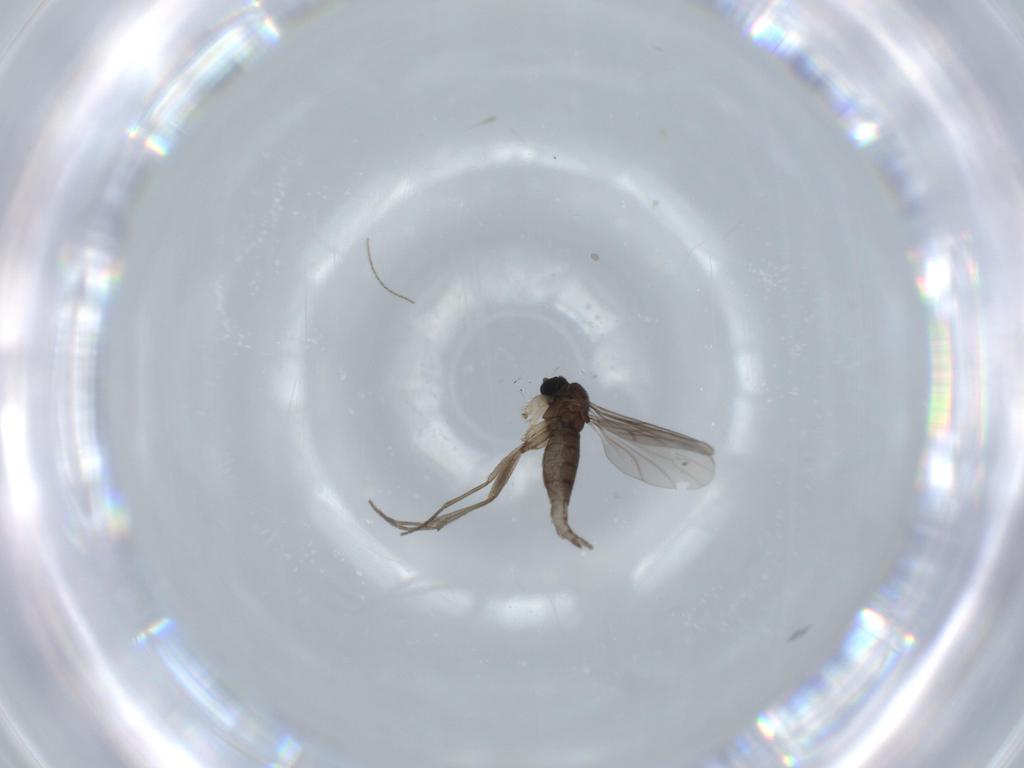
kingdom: Animalia
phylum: Arthropoda
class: Insecta
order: Diptera
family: Sciaridae
